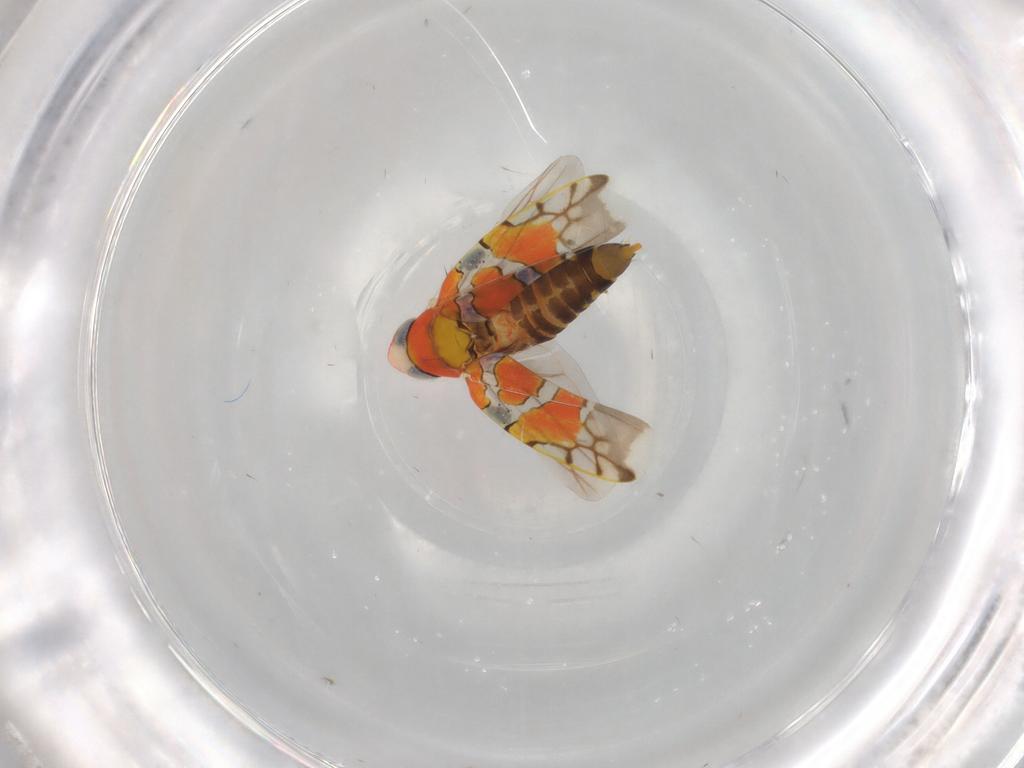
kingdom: Animalia
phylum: Arthropoda
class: Insecta
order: Hemiptera
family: Cicadellidae
